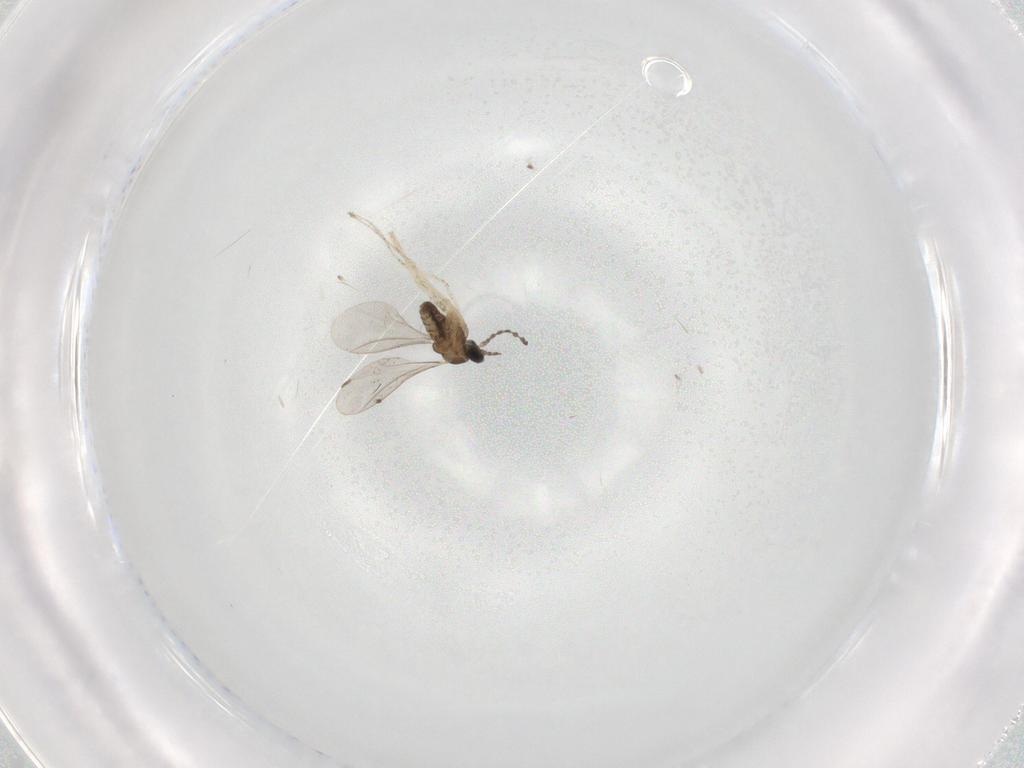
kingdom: Animalia
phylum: Arthropoda
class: Insecta
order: Diptera
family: Cecidomyiidae
